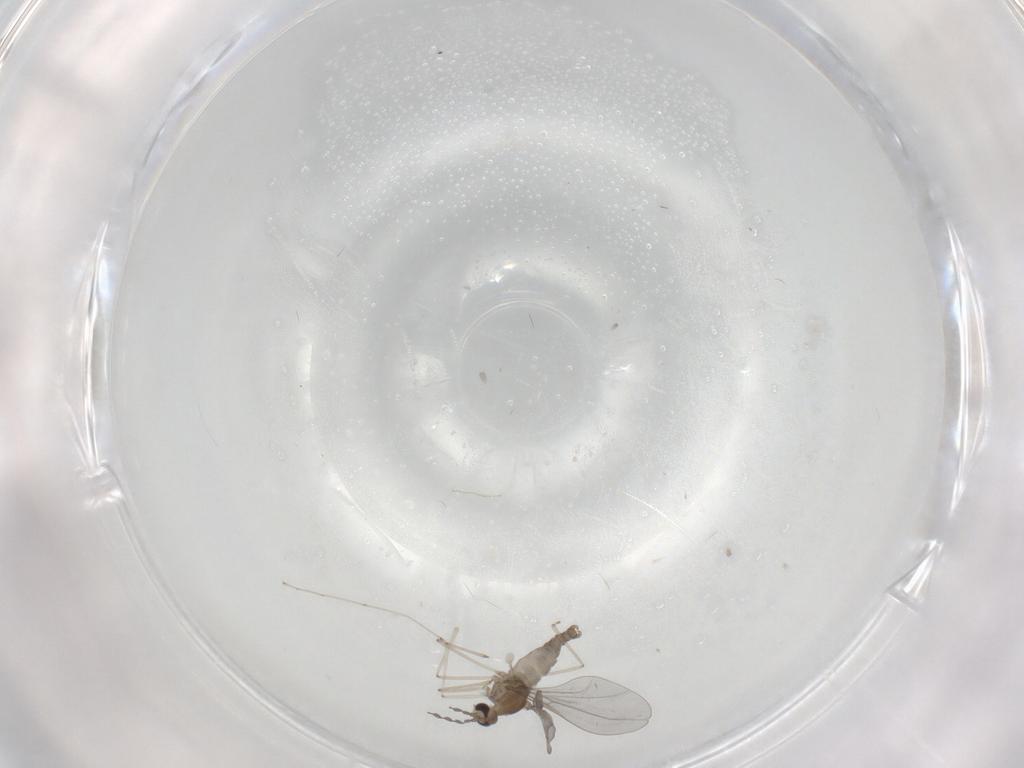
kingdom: Animalia
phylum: Arthropoda
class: Insecta
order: Diptera
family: Cecidomyiidae
